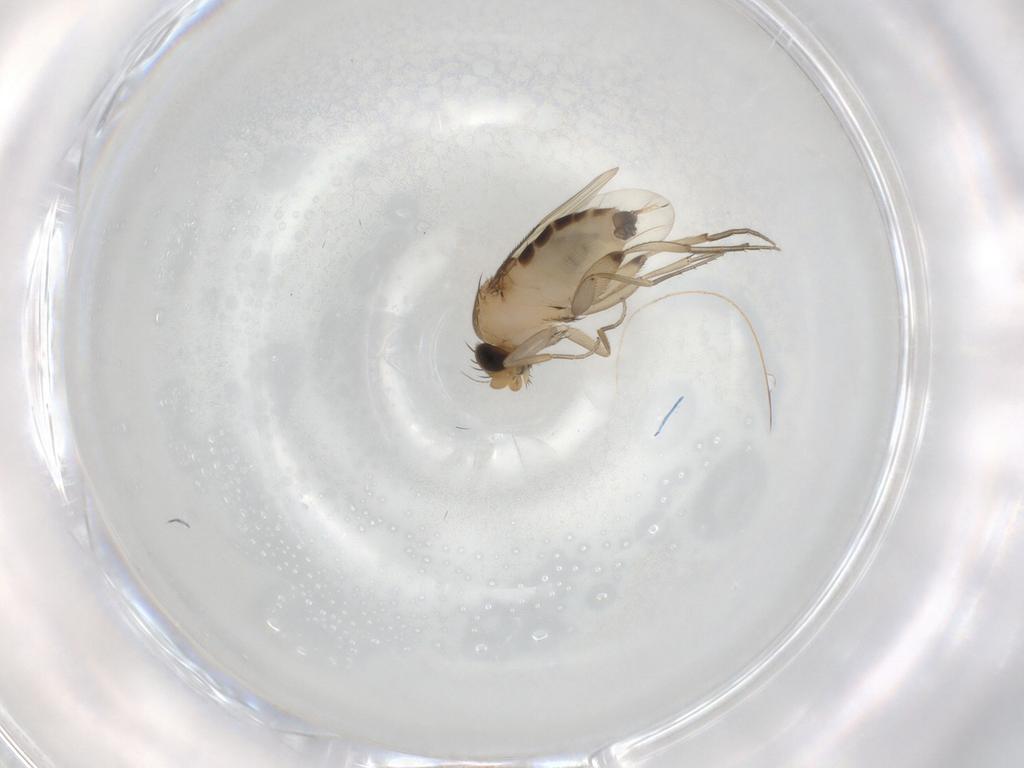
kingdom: Animalia
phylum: Arthropoda
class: Insecta
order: Diptera
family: Phoridae
